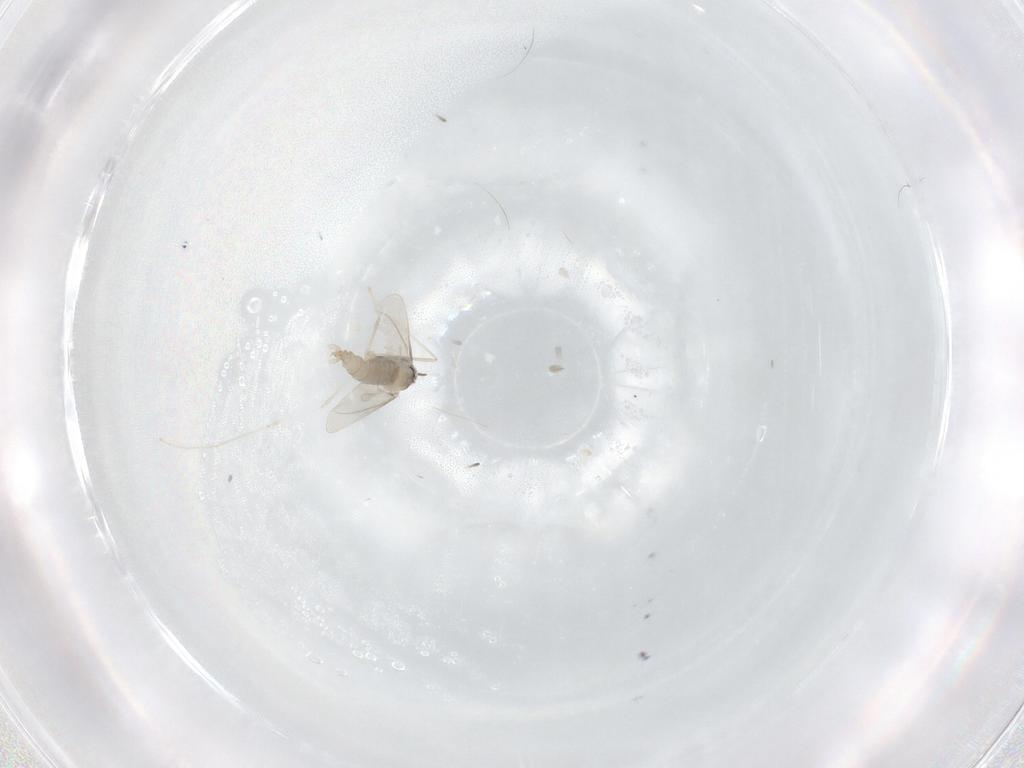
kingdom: Animalia
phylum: Arthropoda
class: Insecta
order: Diptera
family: Cecidomyiidae
